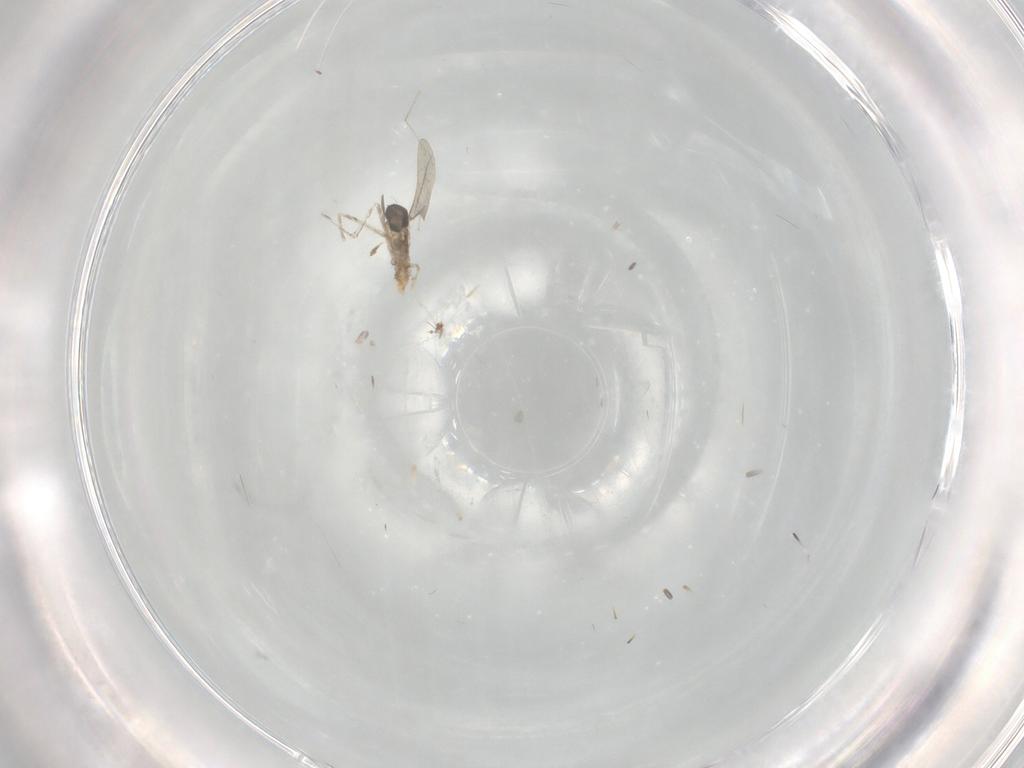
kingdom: Animalia
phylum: Arthropoda
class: Insecta
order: Diptera
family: Cecidomyiidae
